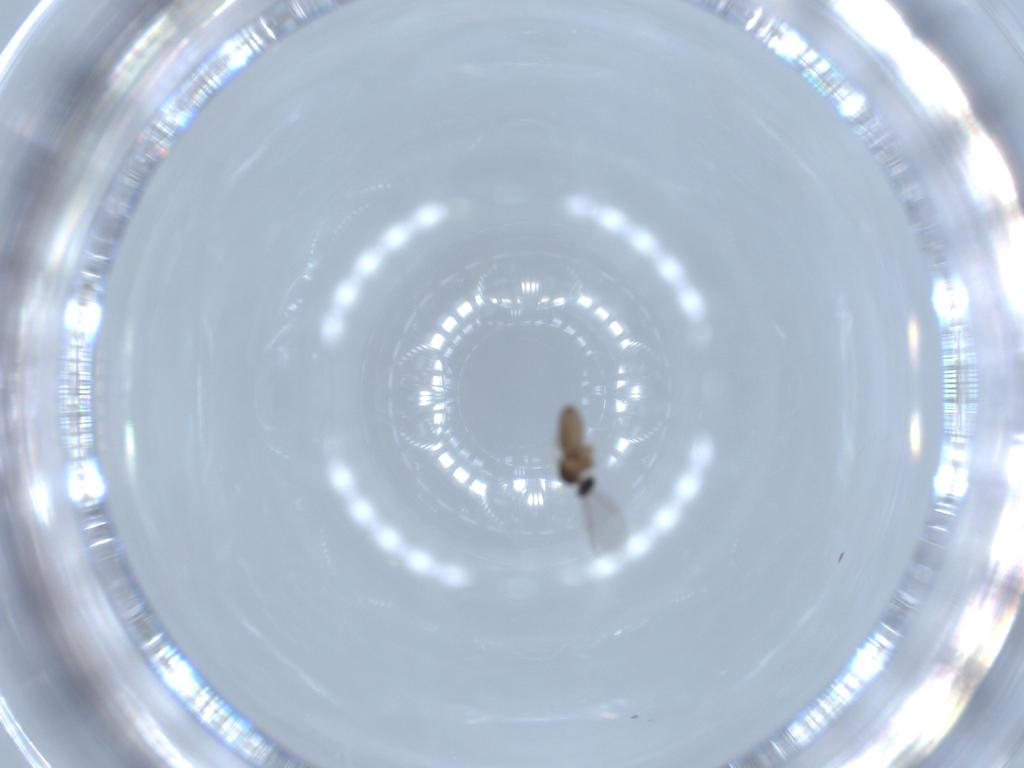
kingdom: Animalia
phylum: Arthropoda
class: Insecta
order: Diptera
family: Cecidomyiidae
